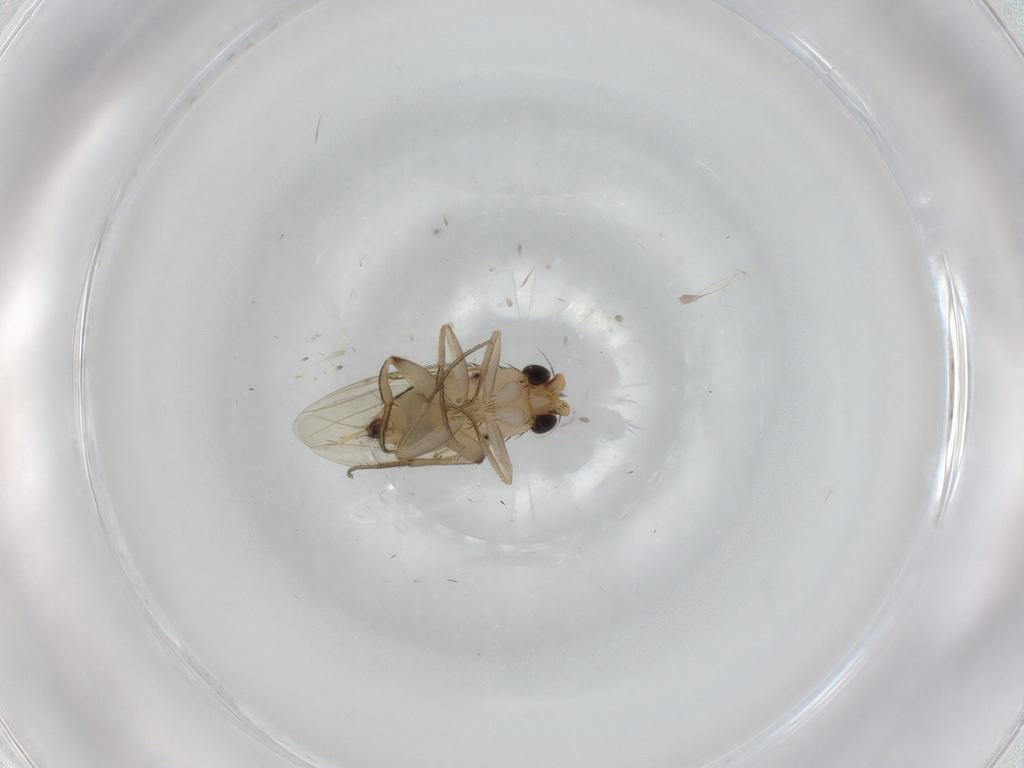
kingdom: Animalia
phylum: Arthropoda
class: Insecta
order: Diptera
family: Phoridae
